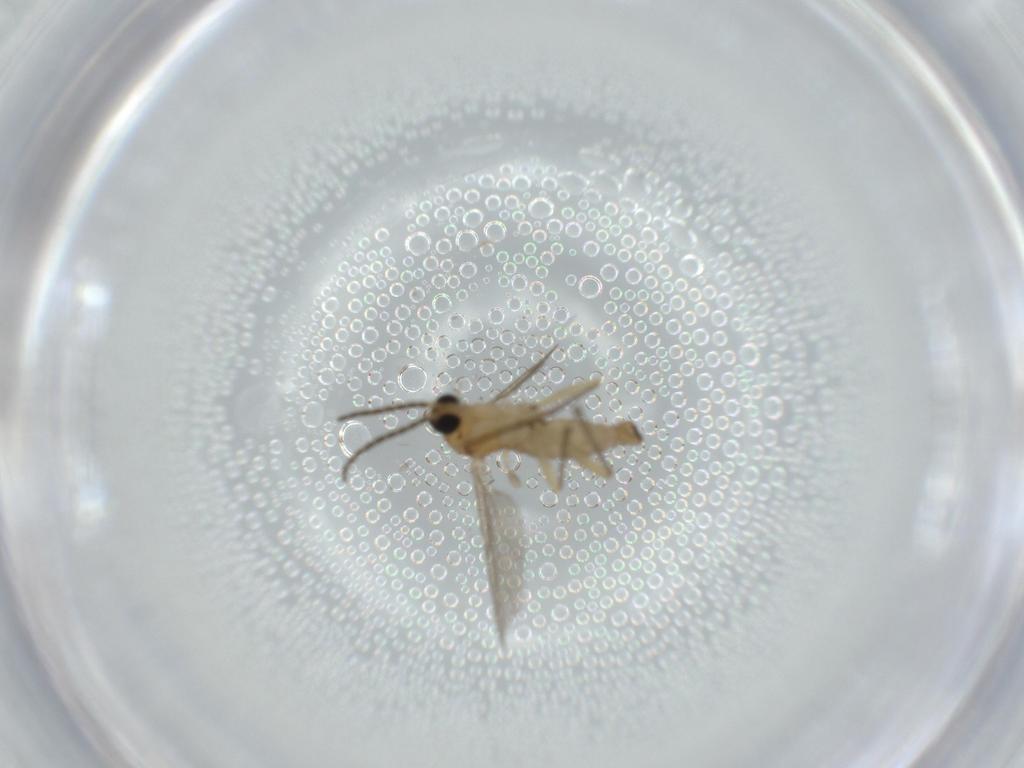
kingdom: Animalia
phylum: Arthropoda
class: Insecta
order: Diptera
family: Sciaridae
